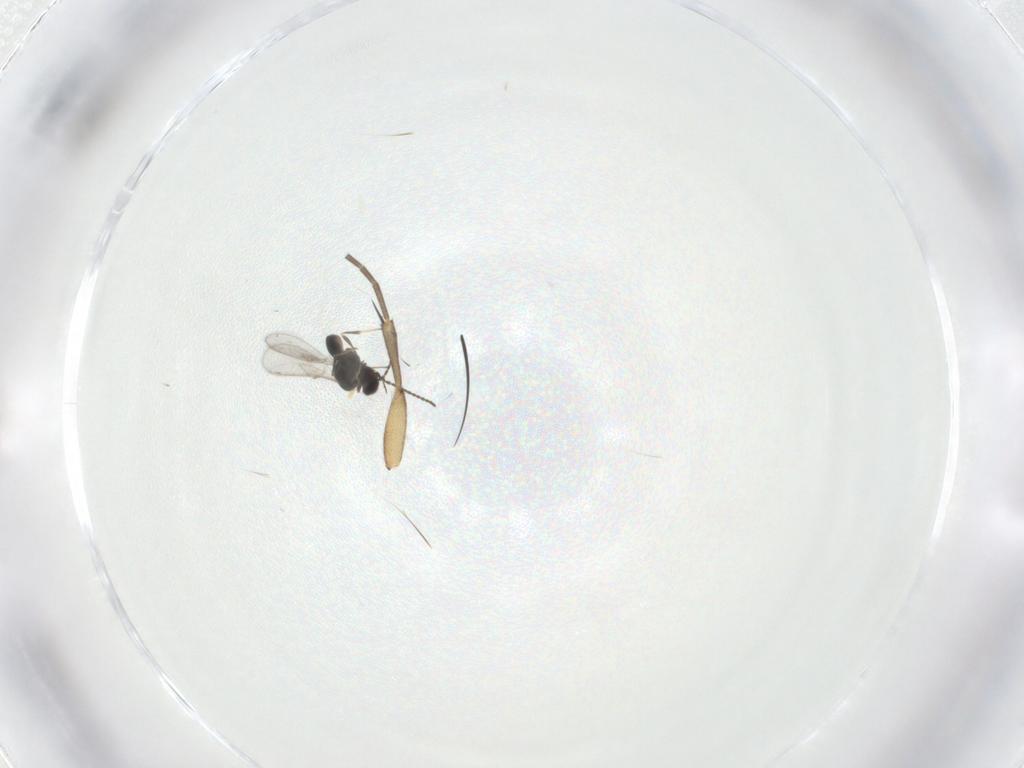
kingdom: Animalia
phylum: Arthropoda
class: Insecta
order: Hymenoptera
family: Scelionidae
